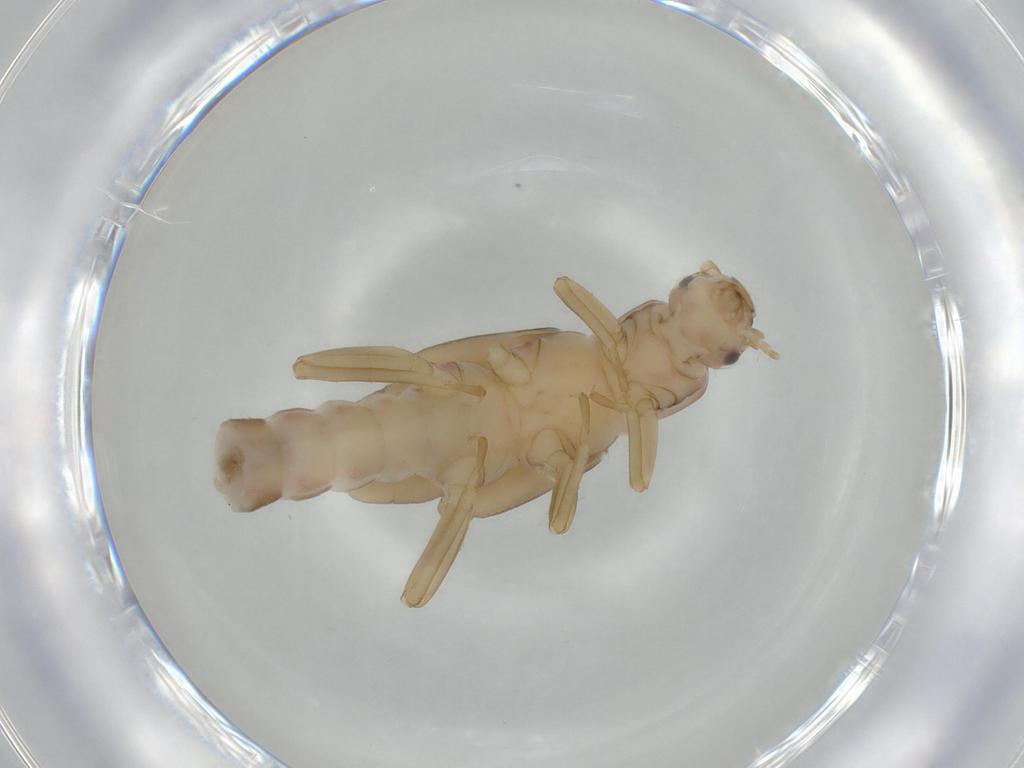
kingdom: Animalia
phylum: Arthropoda
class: Insecta
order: Plecoptera
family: Leuctridae
